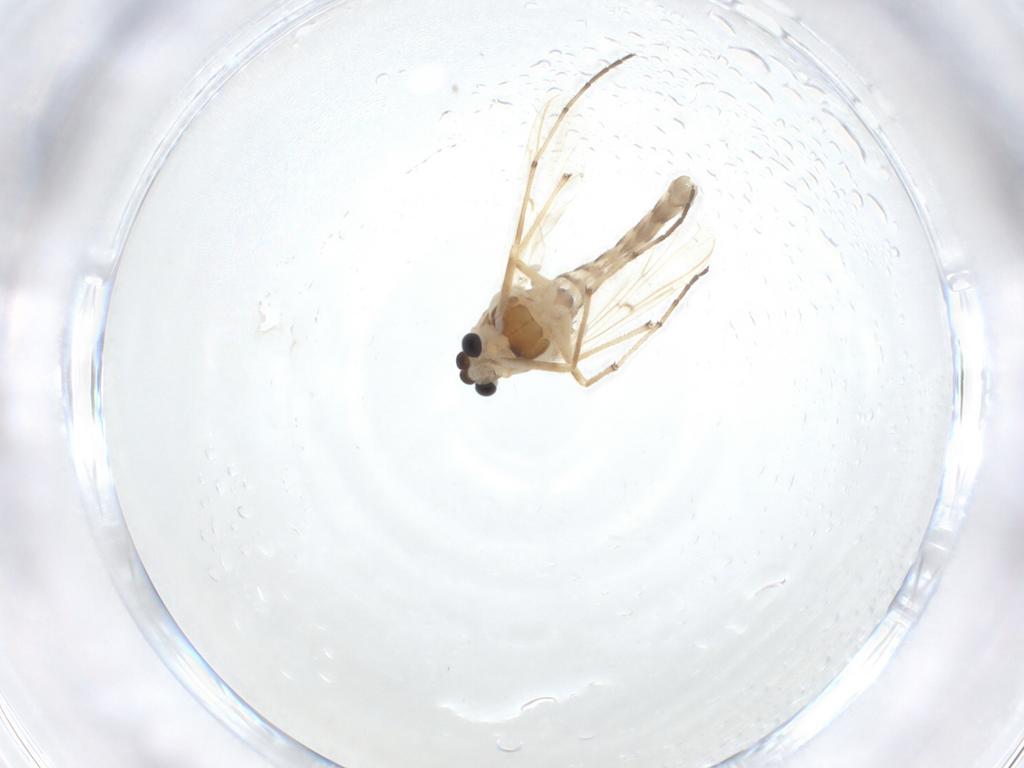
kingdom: Animalia
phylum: Arthropoda
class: Insecta
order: Diptera
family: Chironomidae
